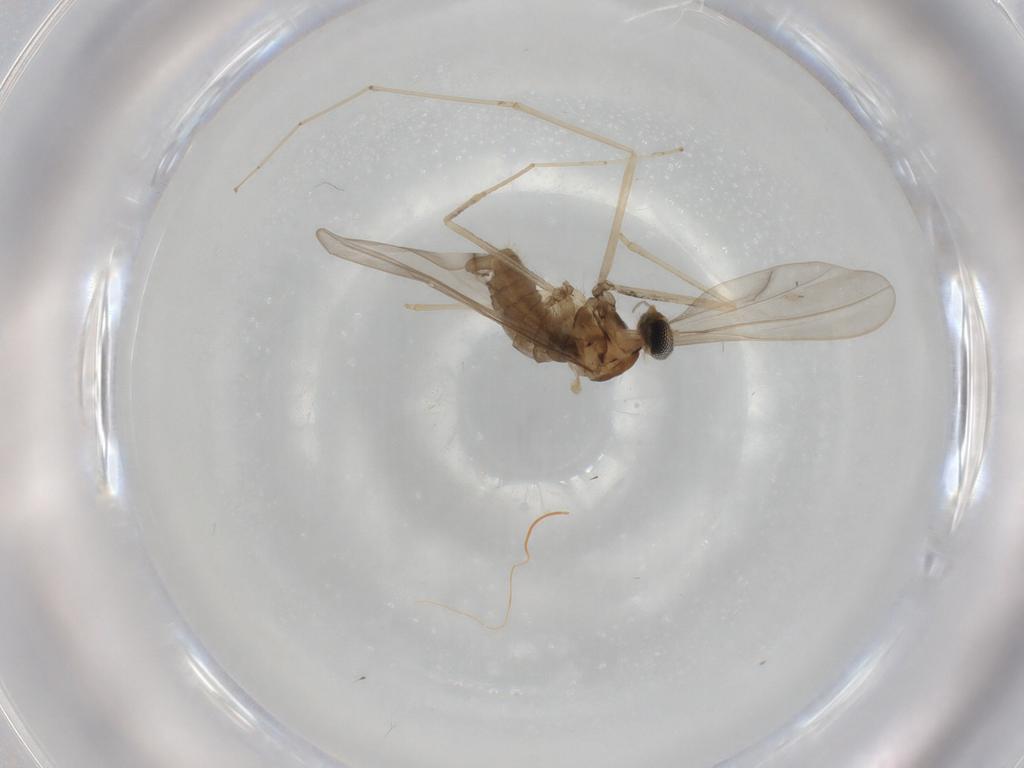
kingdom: Animalia
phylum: Arthropoda
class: Insecta
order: Diptera
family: Cecidomyiidae
